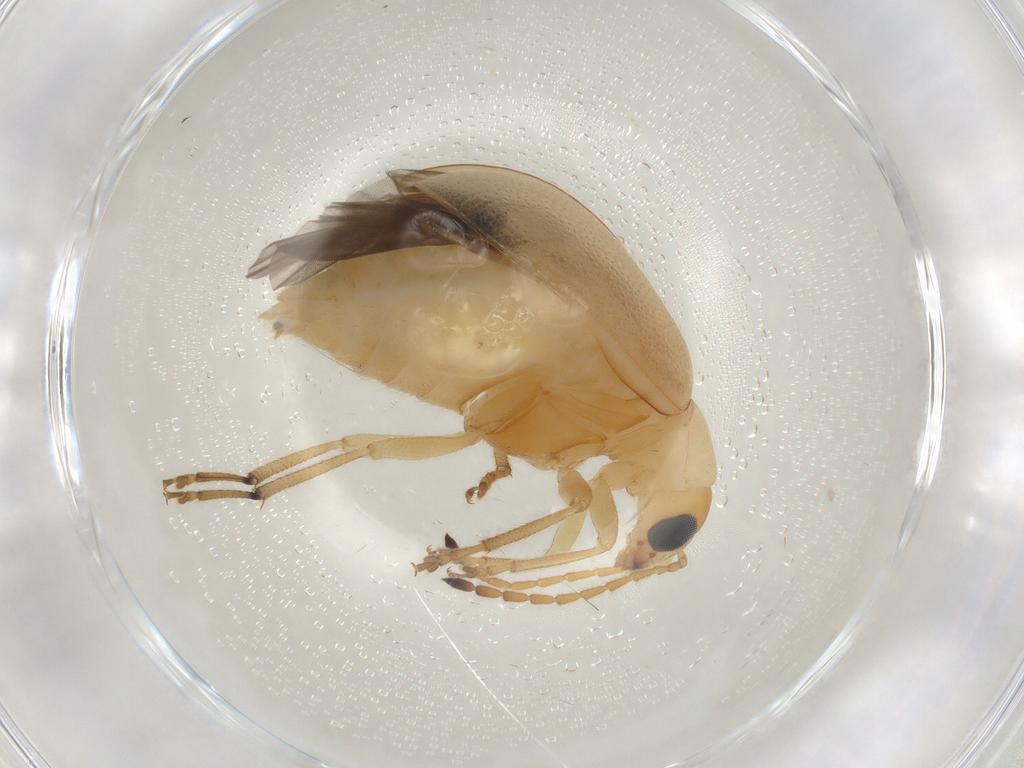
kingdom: Animalia
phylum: Arthropoda
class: Insecta
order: Coleoptera
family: Chrysomelidae
